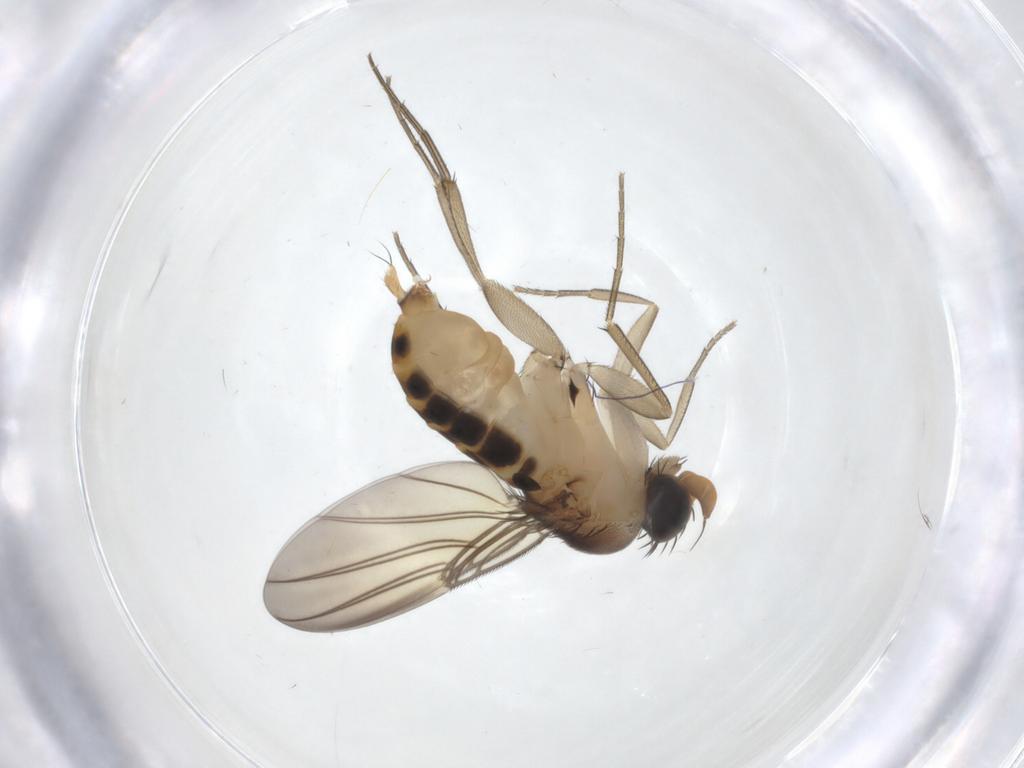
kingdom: Animalia
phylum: Arthropoda
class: Insecta
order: Diptera
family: Phoridae
